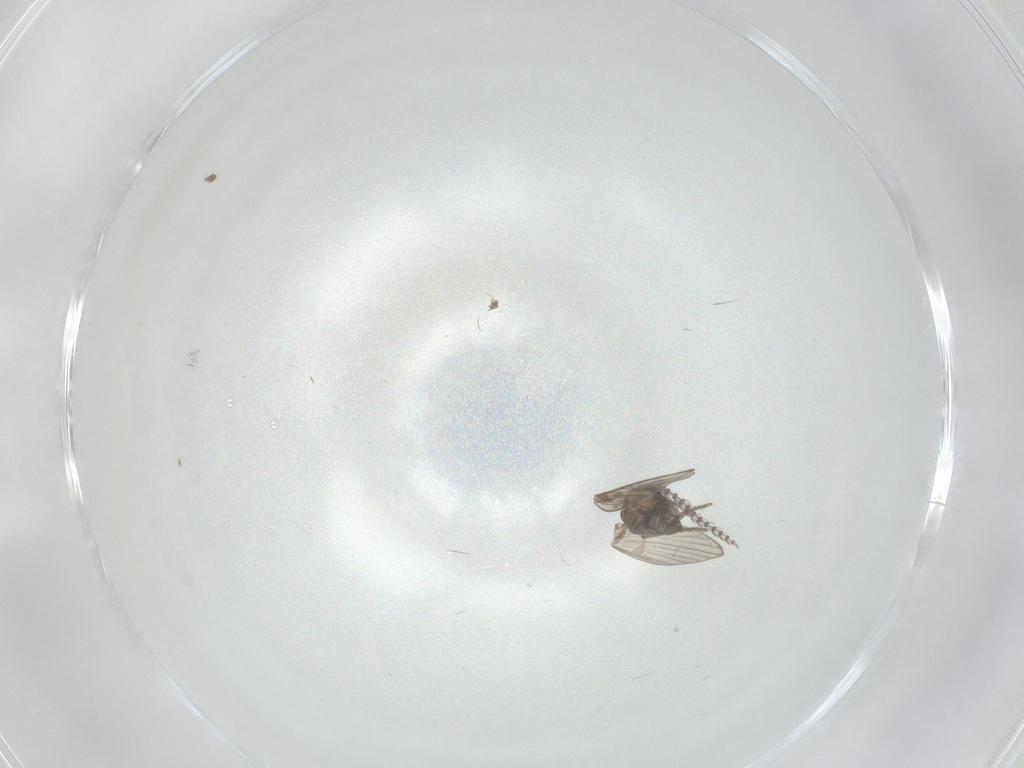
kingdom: Animalia
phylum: Arthropoda
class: Insecta
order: Diptera
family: Psychodidae
